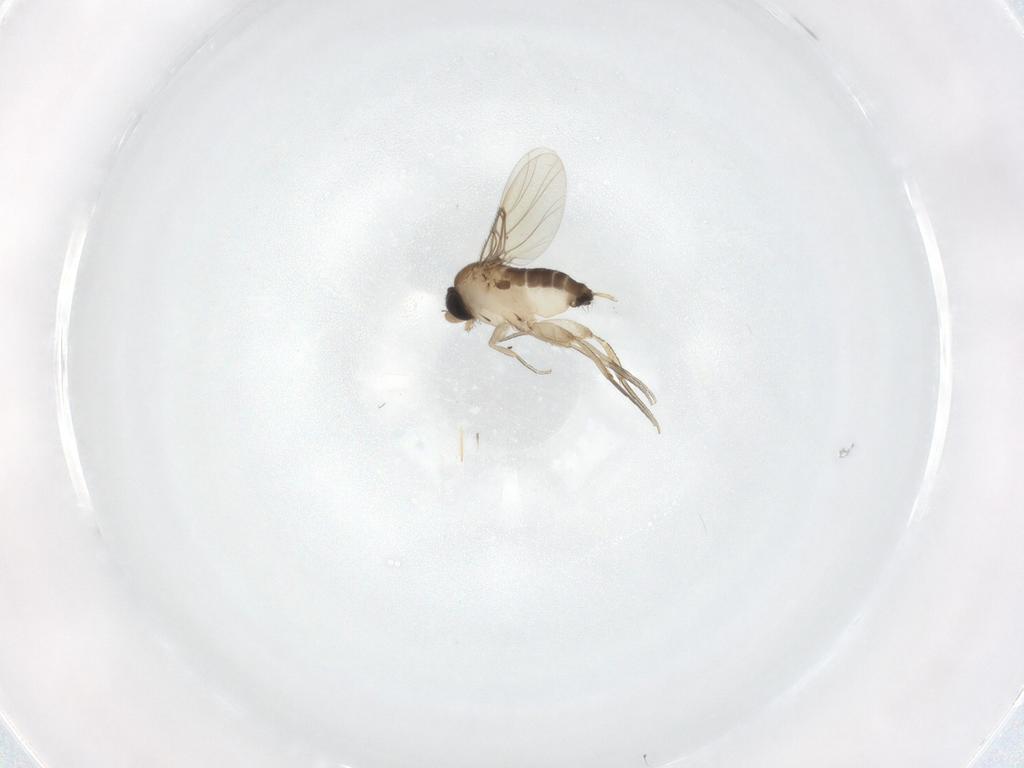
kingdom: Animalia
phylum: Arthropoda
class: Insecta
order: Diptera
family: Phoridae
